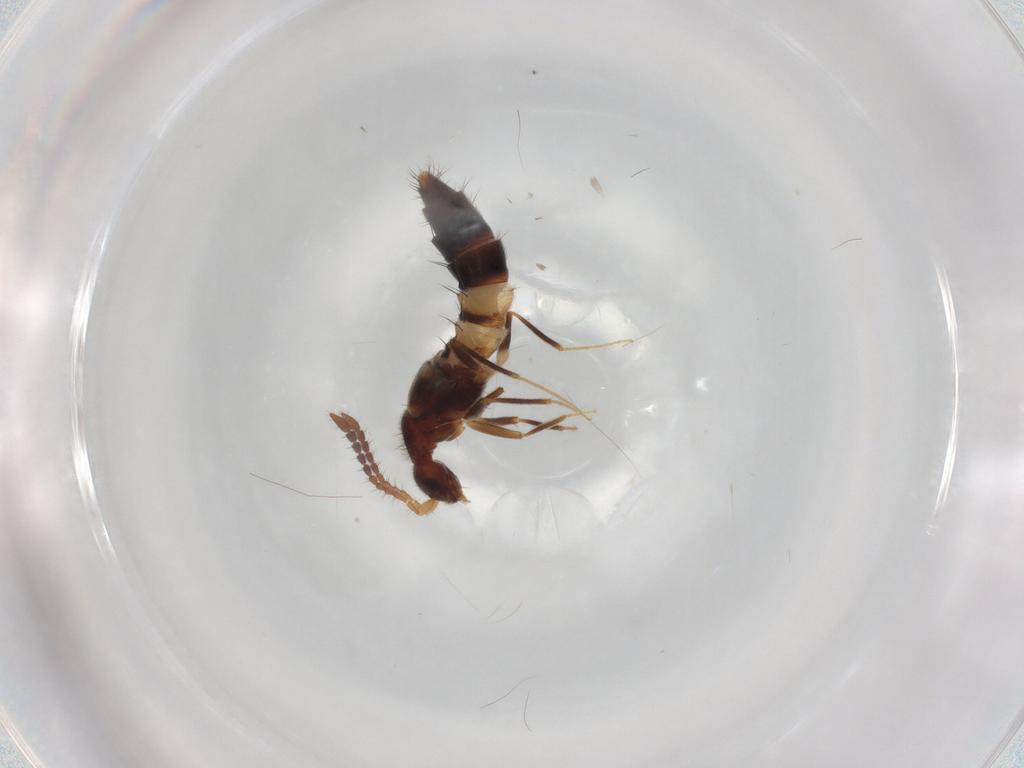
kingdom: Animalia
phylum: Arthropoda
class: Insecta
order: Coleoptera
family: Staphylinidae
